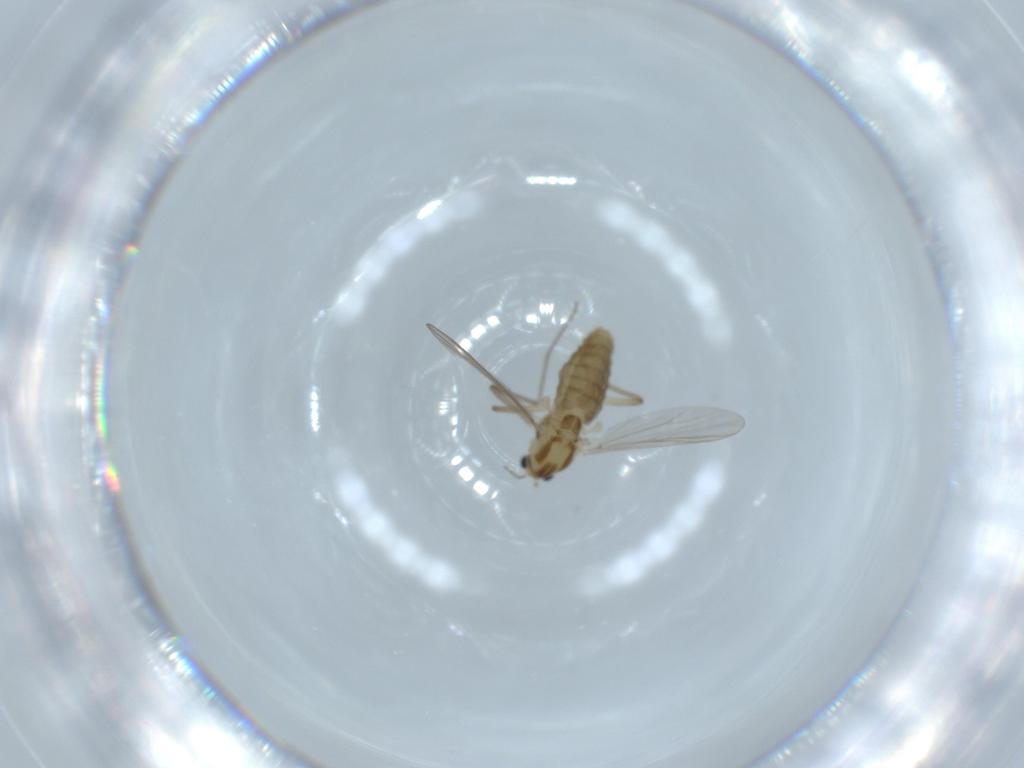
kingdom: Animalia
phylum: Arthropoda
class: Insecta
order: Diptera
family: Chironomidae
